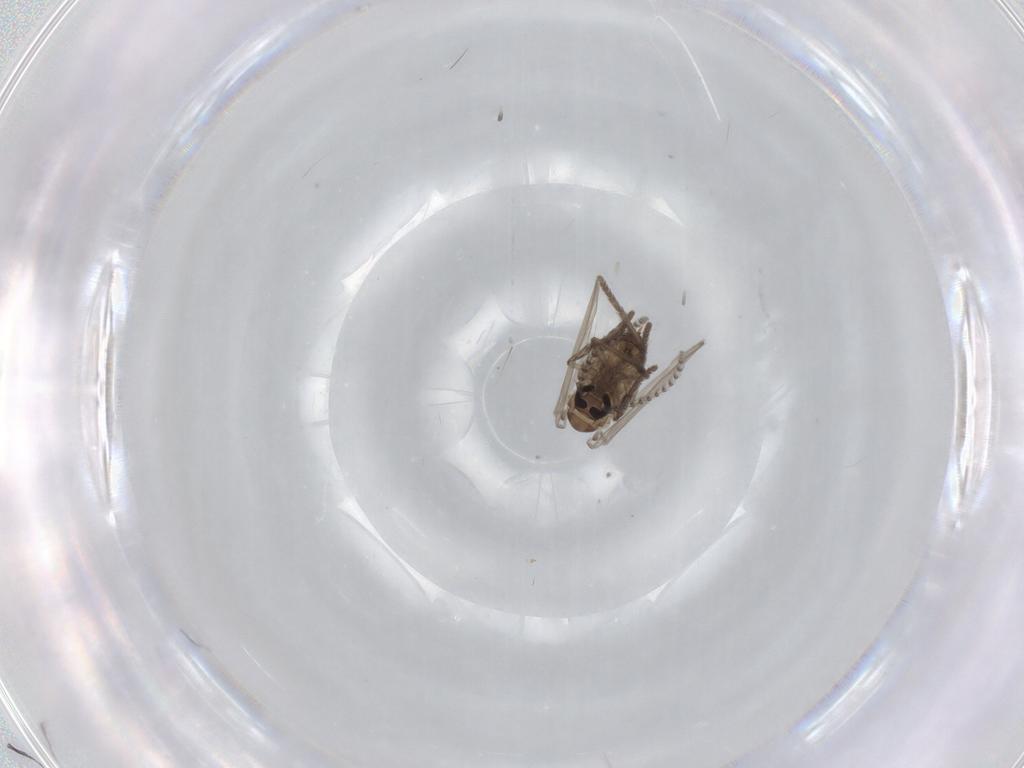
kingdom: Animalia
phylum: Arthropoda
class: Insecta
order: Diptera
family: Psychodidae
